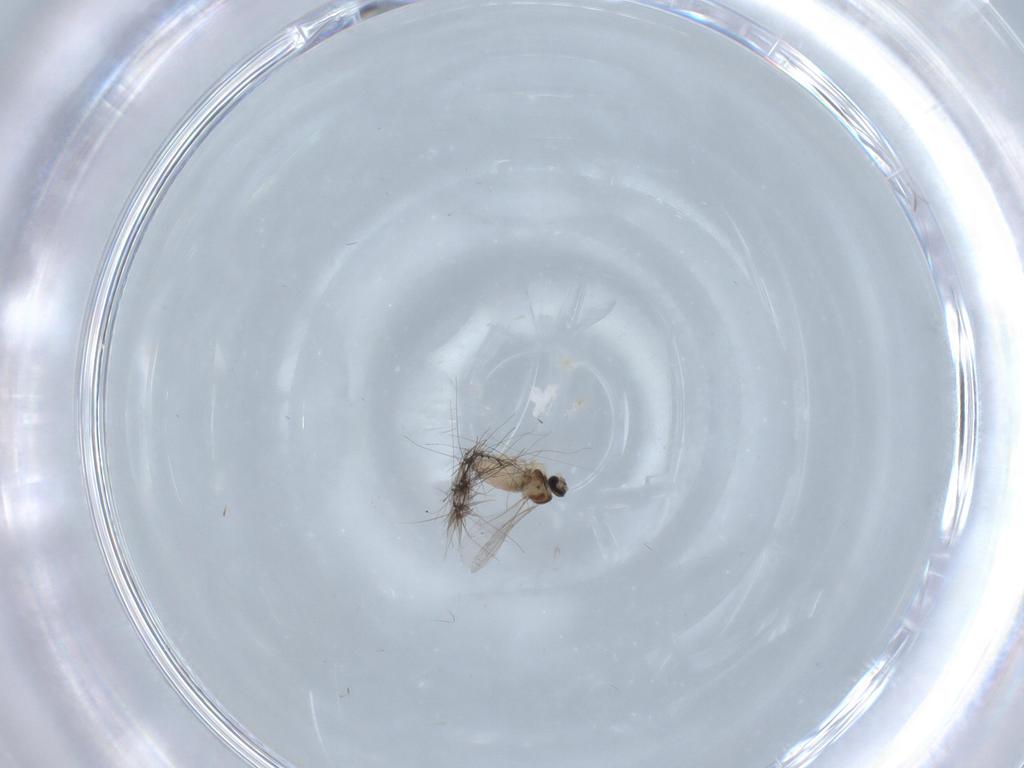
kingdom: Animalia
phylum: Arthropoda
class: Insecta
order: Diptera
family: Cecidomyiidae
